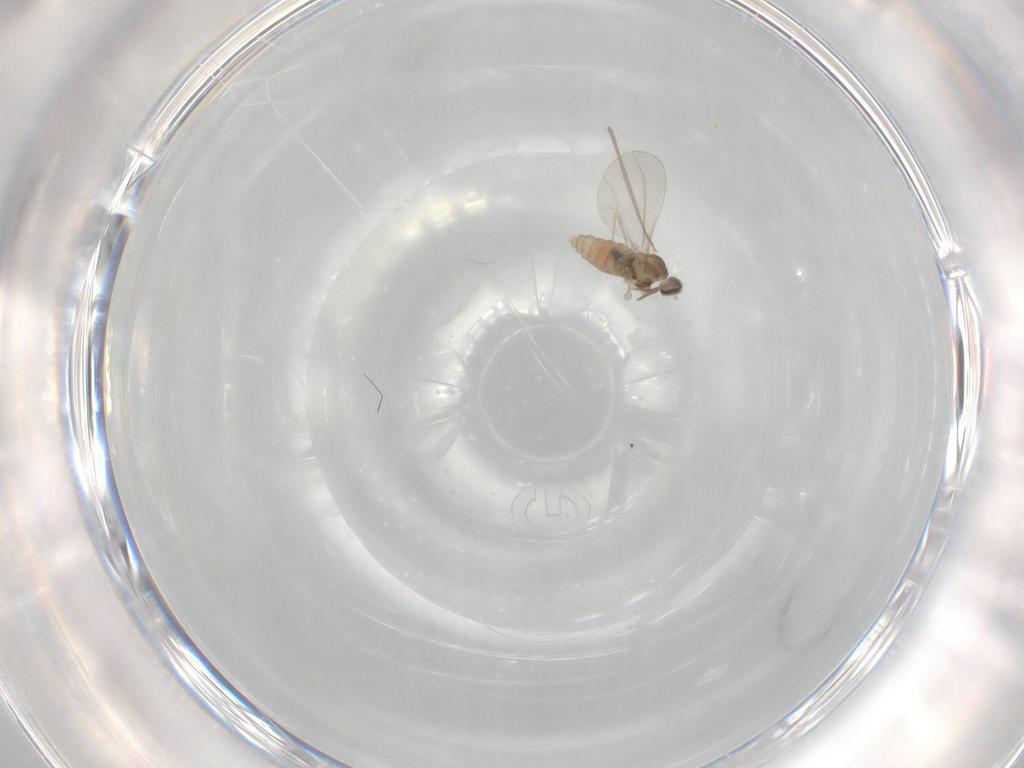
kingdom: Animalia
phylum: Arthropoda
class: Insecta
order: Diptera
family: Cecidomyiidae
